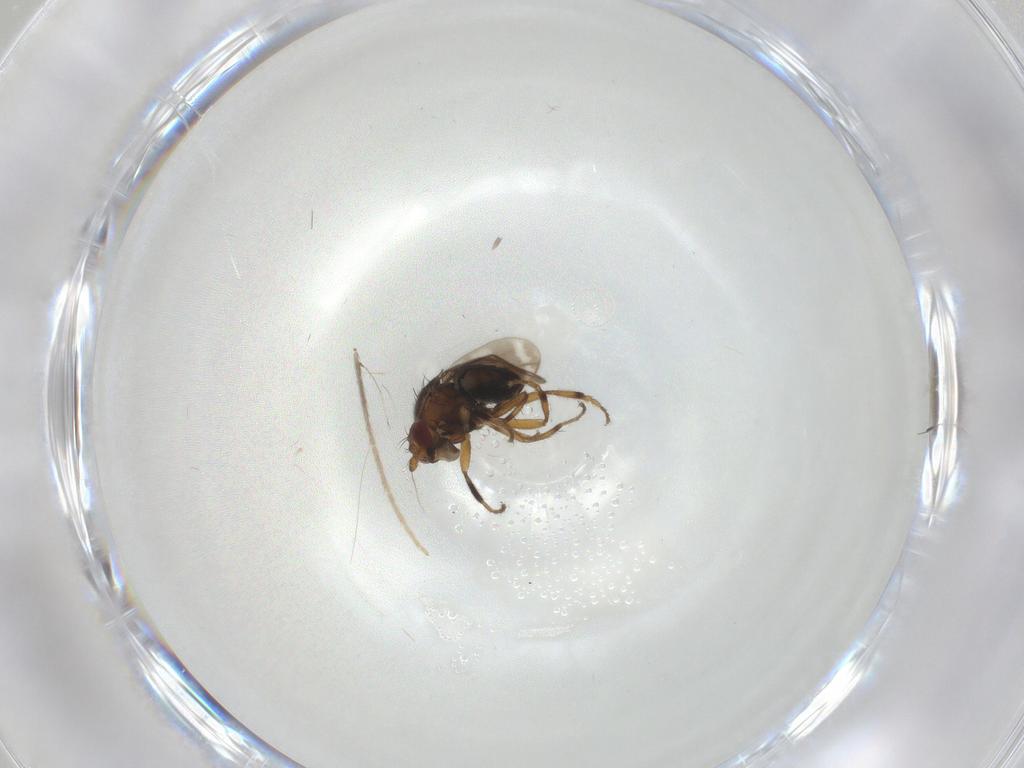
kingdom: Animalia
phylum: Arthropoda
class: Insecta
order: Diptera
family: Chironomidae
